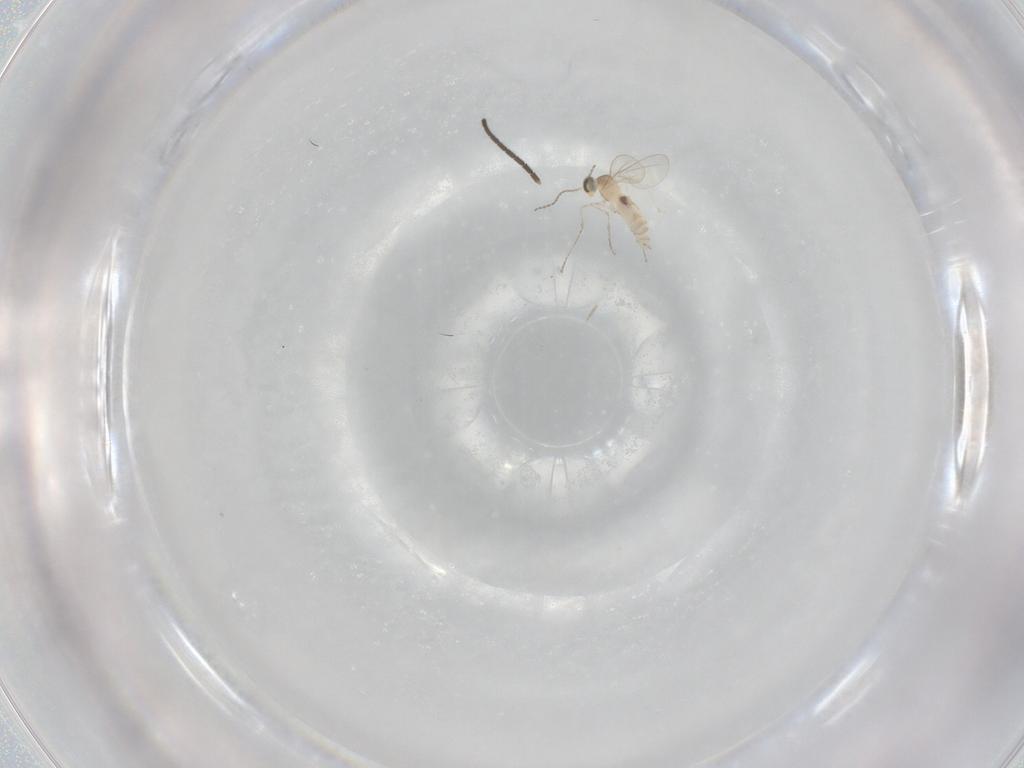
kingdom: Animalia
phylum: Arthropoda
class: Insecta
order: Diptera
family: Cecidomyiidae
